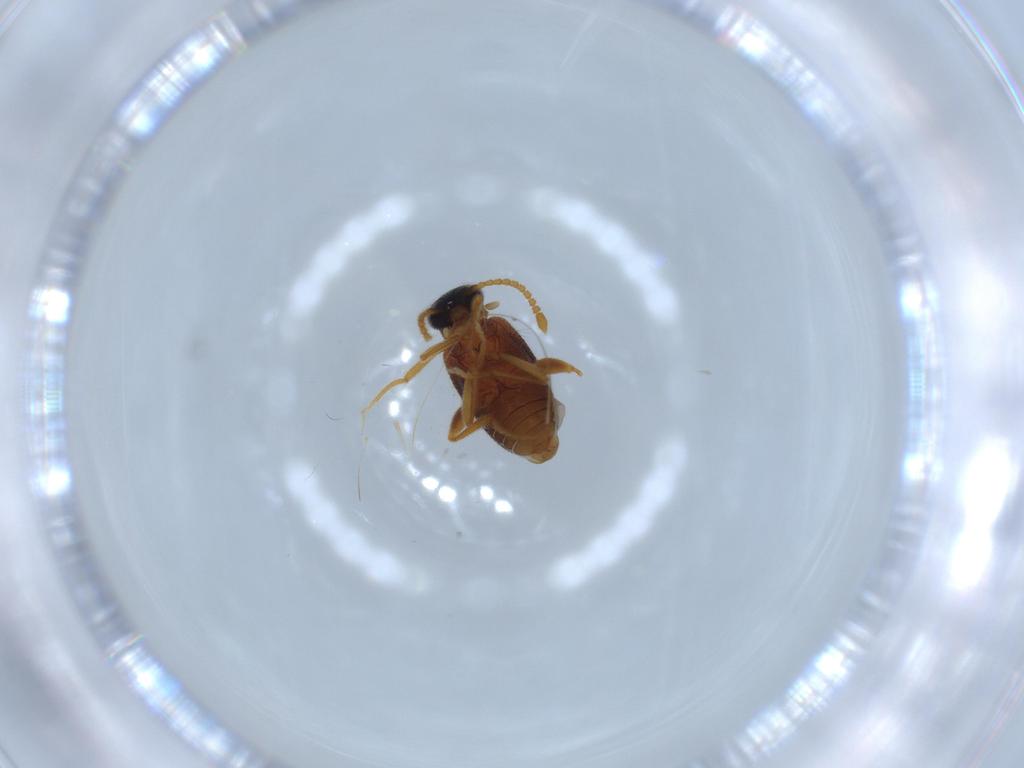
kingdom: Animalia
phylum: Arthropoda
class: Insecta
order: Coleoptera
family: Aderidae
